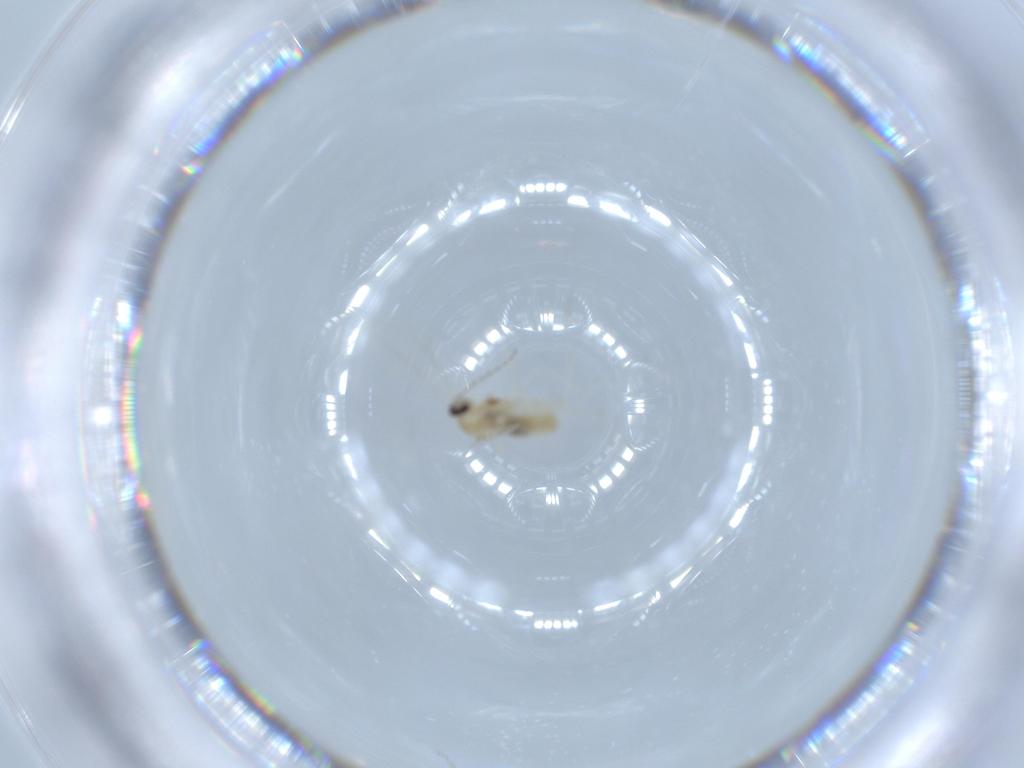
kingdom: Animalia
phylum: Arthropoda
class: Insecta
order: Diptera
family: Cecidomyiidae
